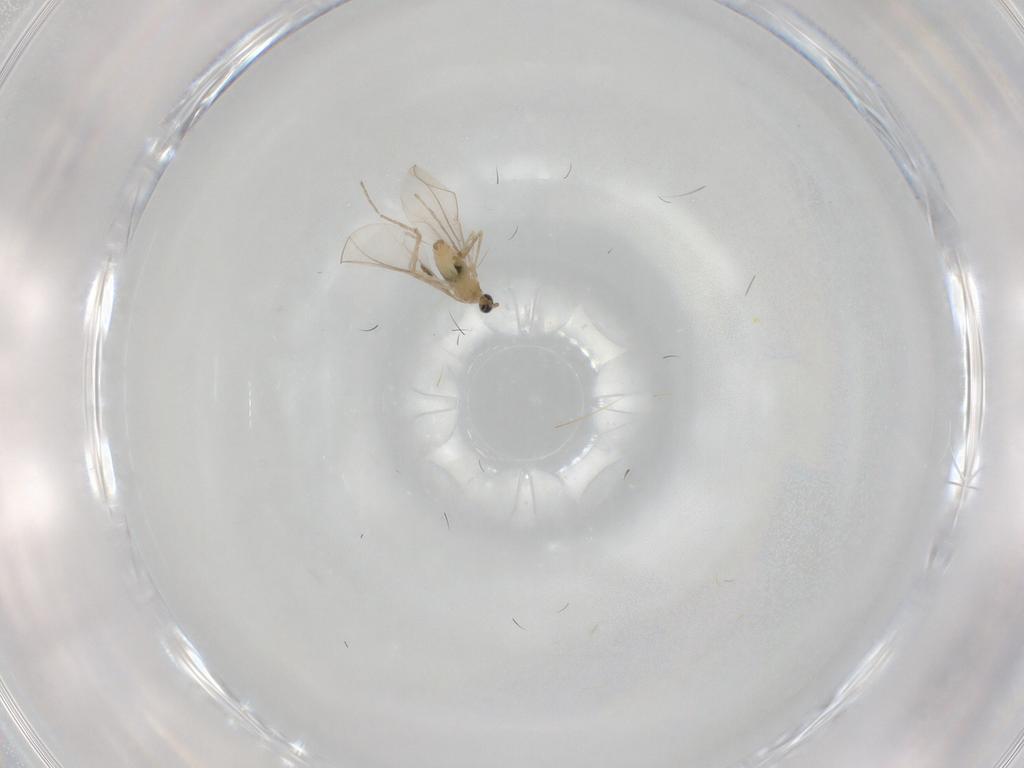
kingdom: Animalia
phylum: Arthropoda
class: Insecta
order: Diptera
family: Cecidomyiidae
